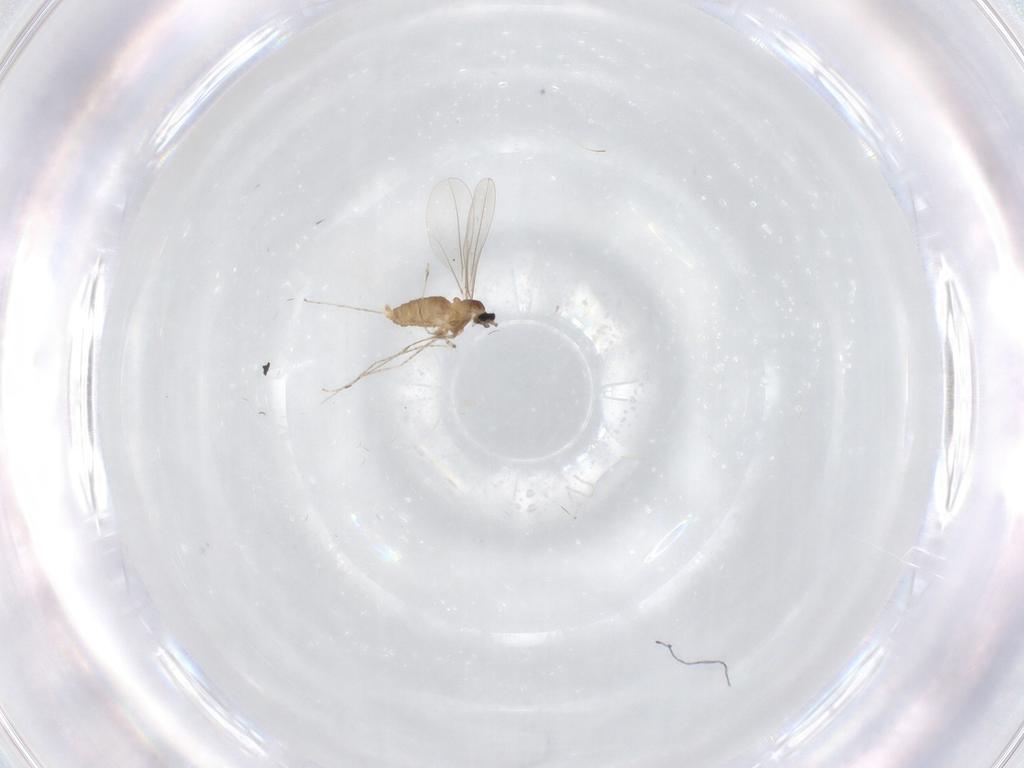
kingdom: Animalia
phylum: Arthropoda
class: Insecta
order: Diptera
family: Cecidomyiidae
